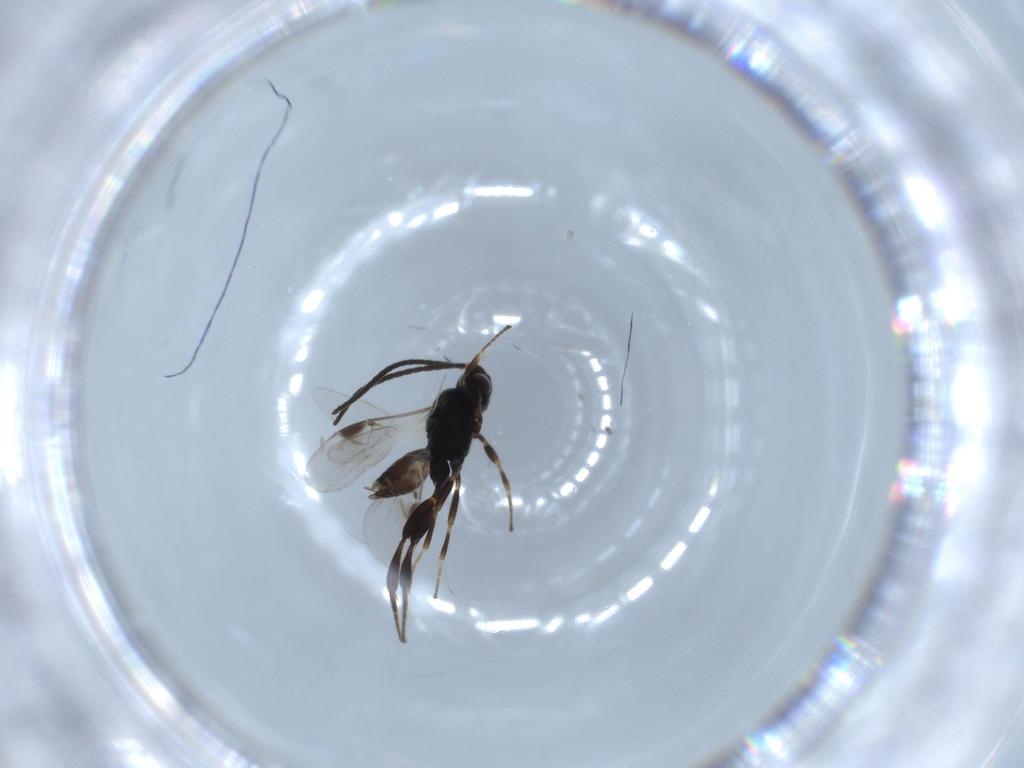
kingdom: Animalia
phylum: Arthropoda
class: Insecta
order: Hymenoptera
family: Braconidae
